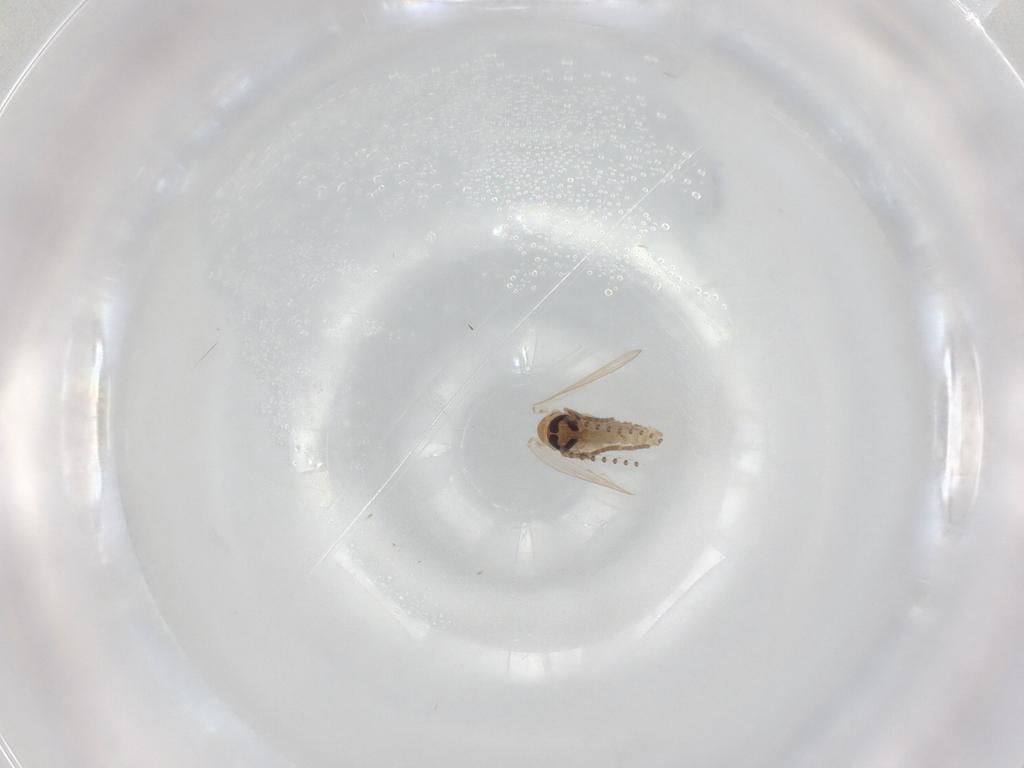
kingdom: Animalia
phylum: Arthropoda
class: Insecta
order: Diptera
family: Psychodidae
